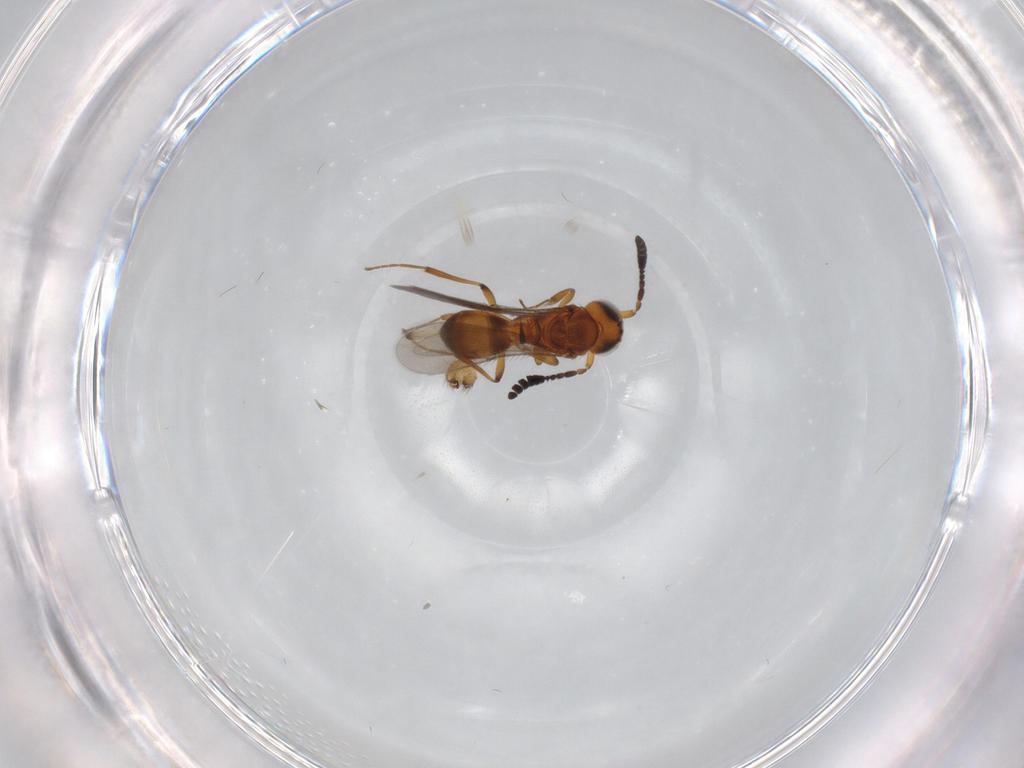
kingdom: Animalia
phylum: Arthropoda
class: Insecta
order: Hymenoptera
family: Scelionidae
